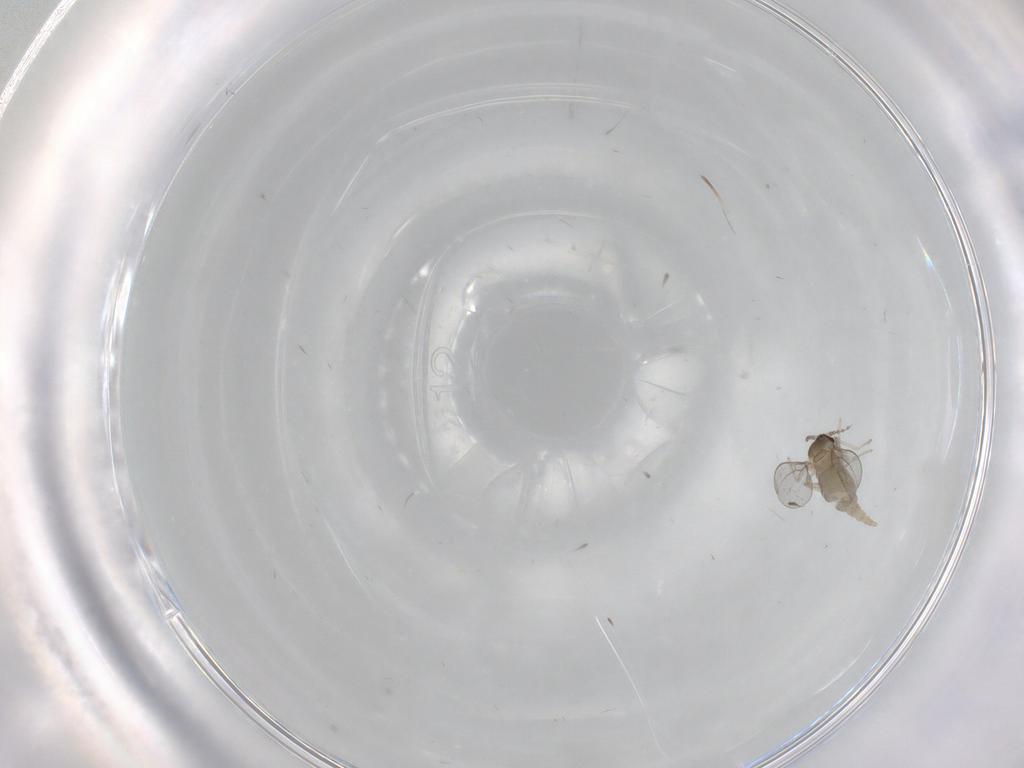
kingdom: Animalia
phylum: Arthropoda
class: Insecta
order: Diptera
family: Cecidomyiidae
